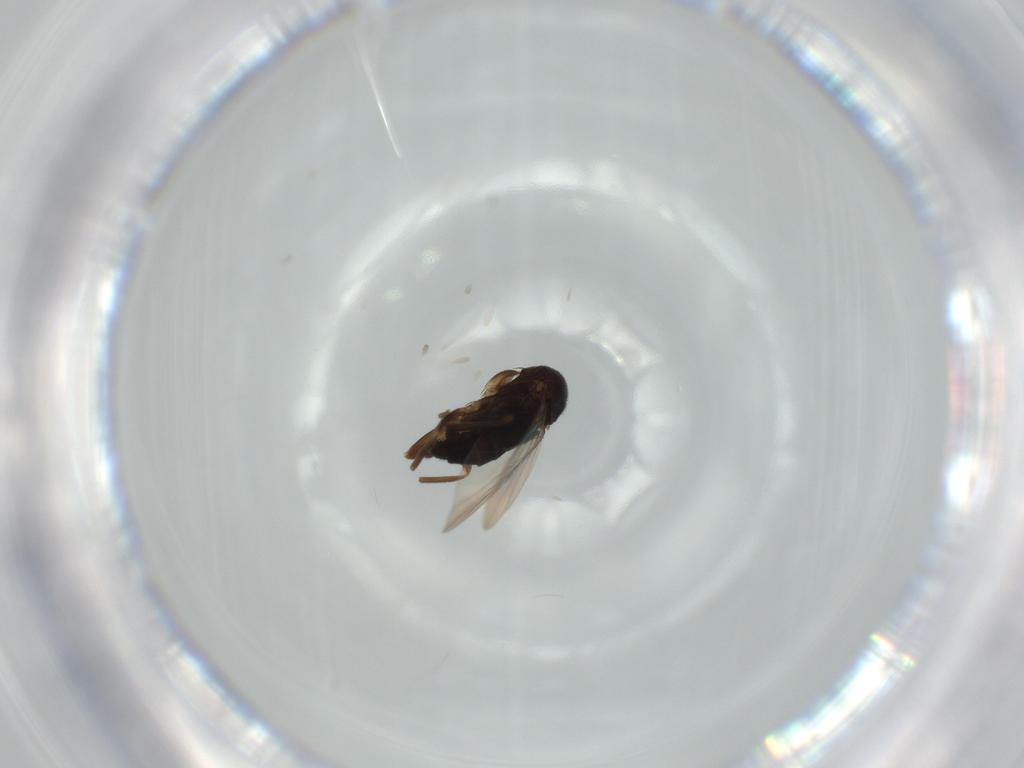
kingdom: Animalia
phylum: Arthropoda
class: Insecta
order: Diptera
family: Phoridae
